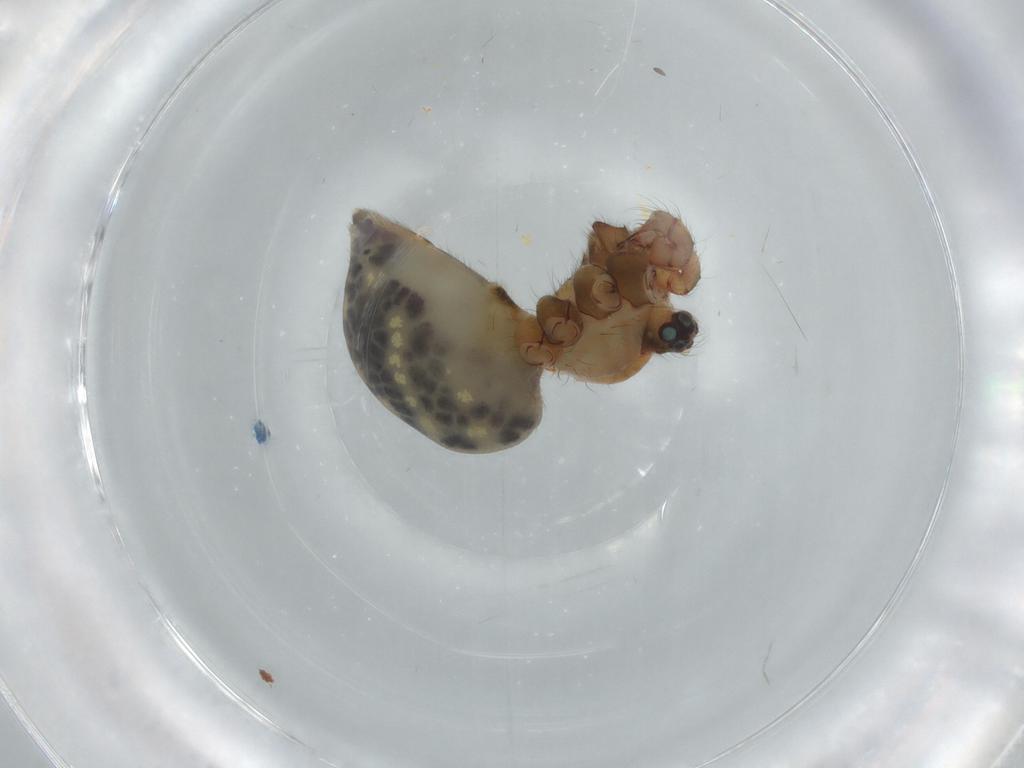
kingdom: Animalia
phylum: Arthropoda
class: Arachnida
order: Araneae
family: Pholcidae
